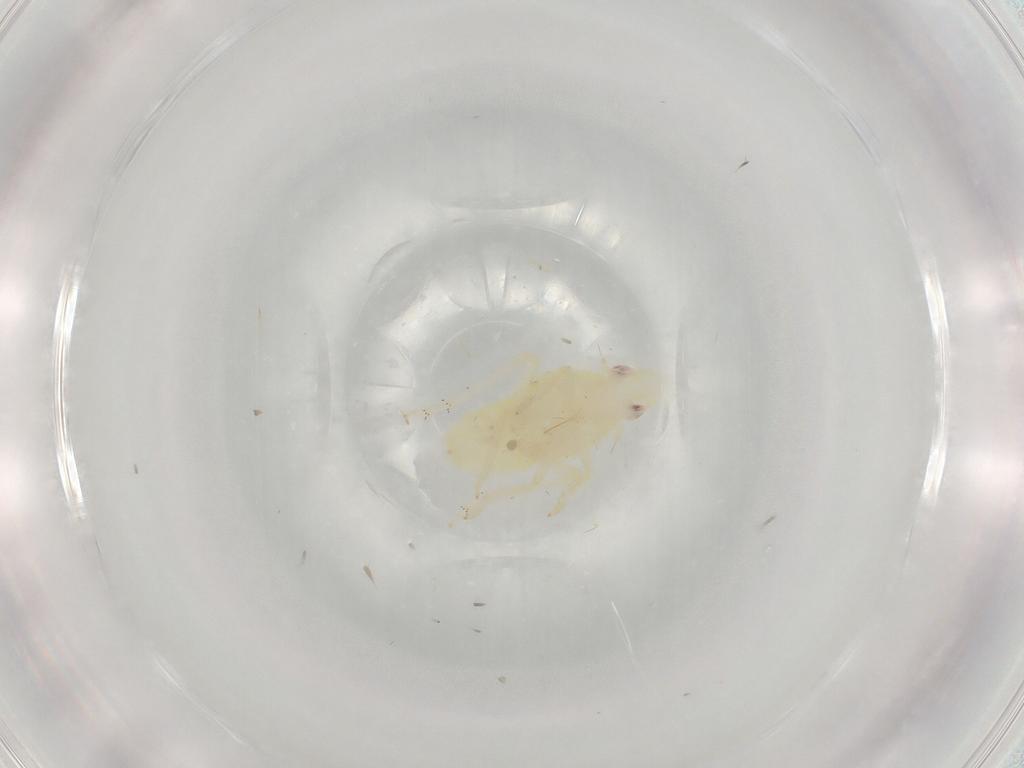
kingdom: Animalia
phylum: Arthropoda
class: Insecta
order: Hemiptera
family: Tropiduchidae
